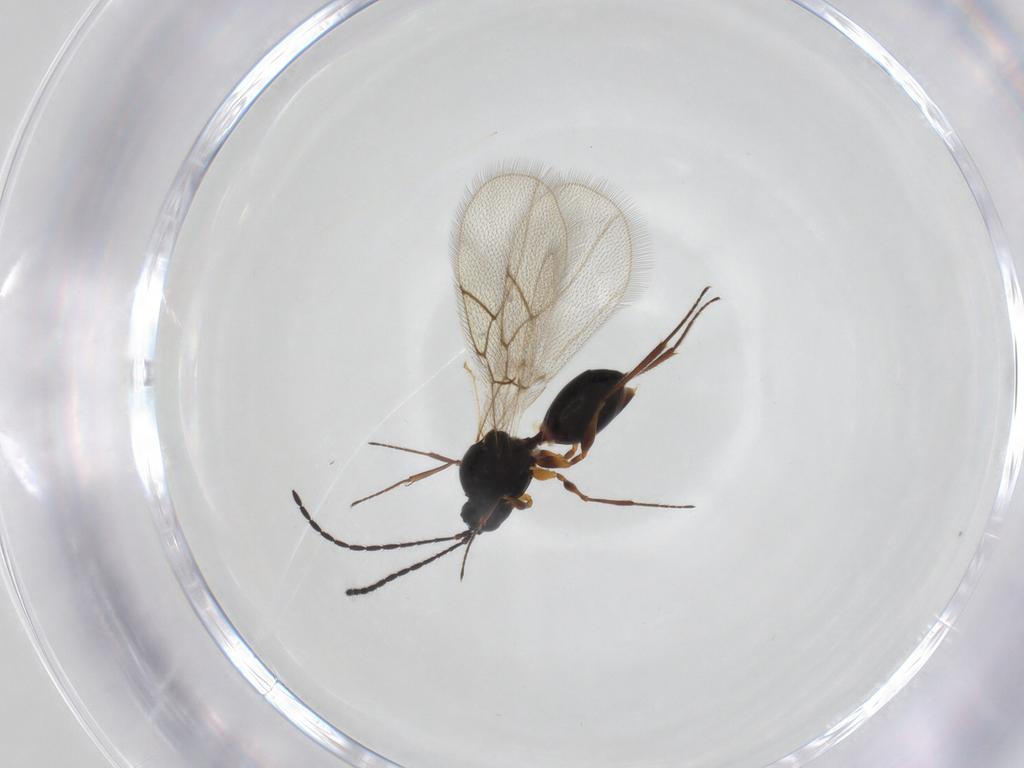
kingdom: Animalia
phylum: Arthropoda
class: Insecta
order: Hymenoptera
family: Figitidae
